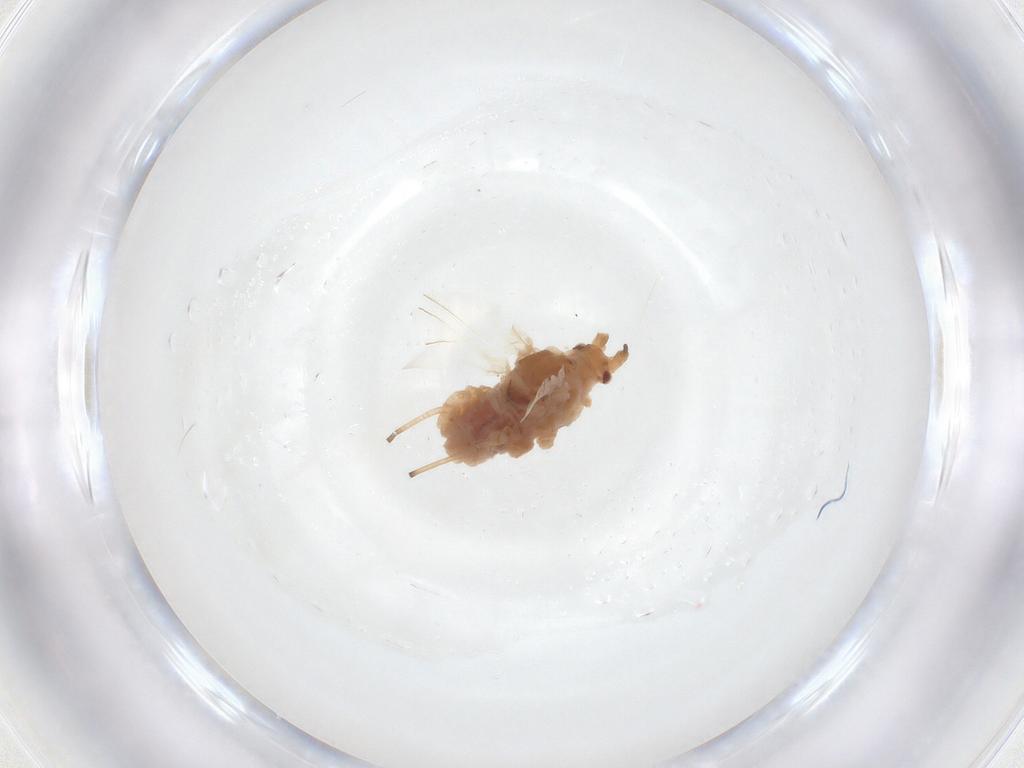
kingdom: Animalia
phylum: Arthropoda
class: Insecta
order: Hemiptera
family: Aphididae
